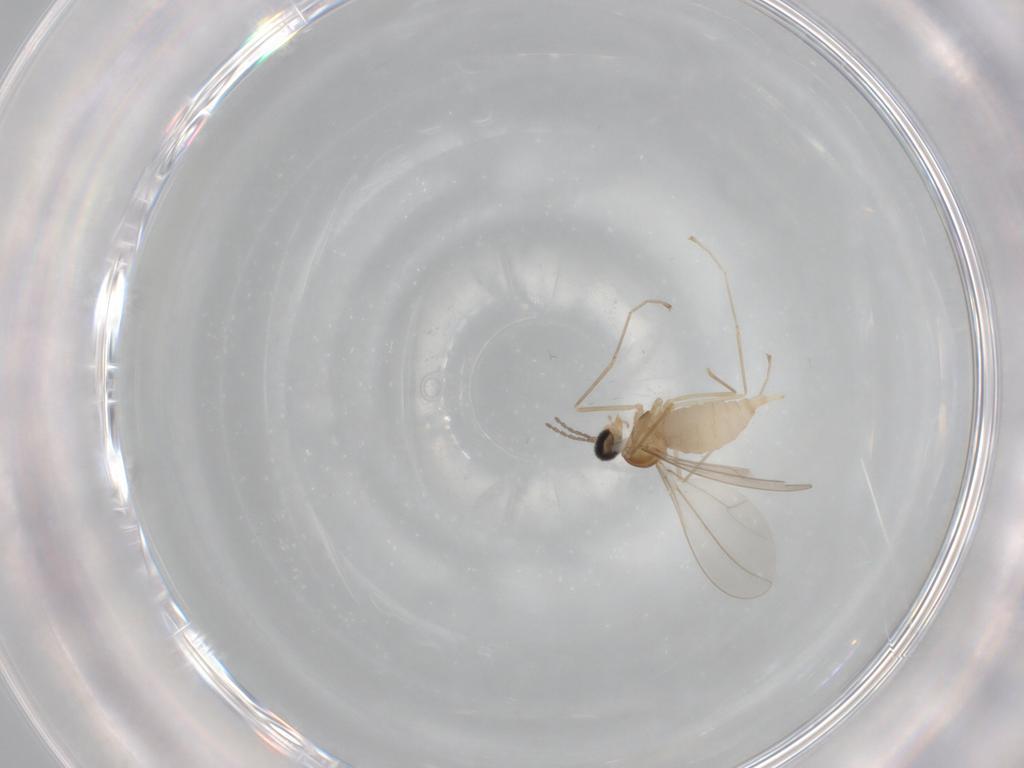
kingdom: Animalia
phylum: Arthropoda
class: Insecta
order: Diptera
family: Cecidomyiidae
